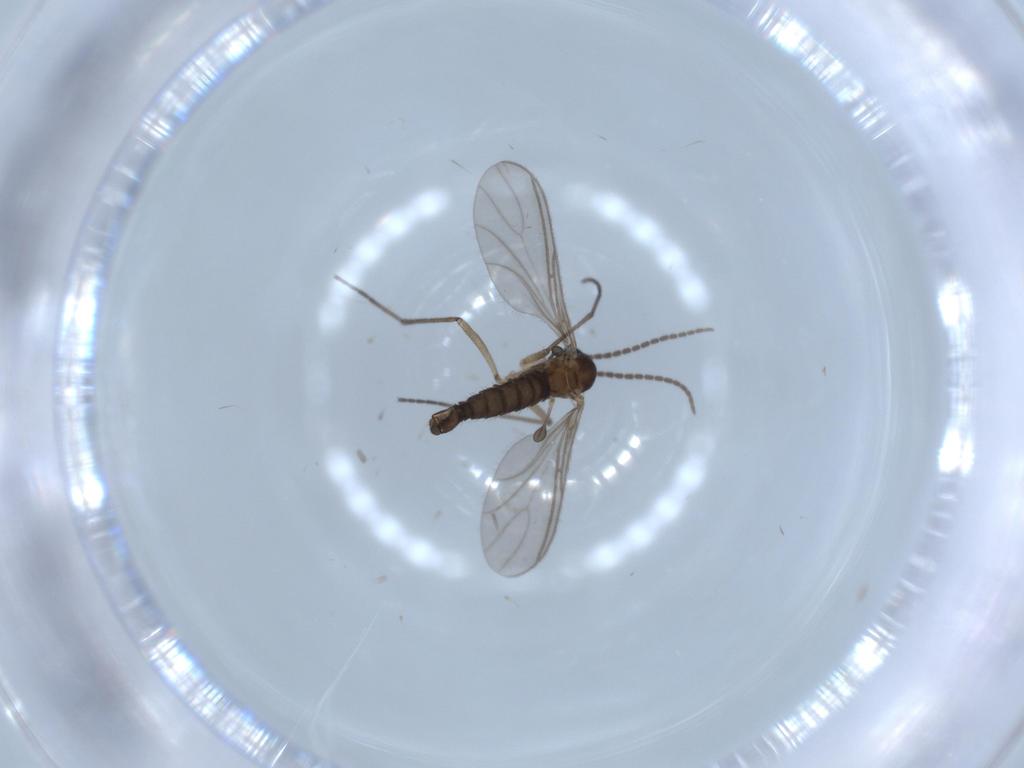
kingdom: Animalia
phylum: Arthropoda
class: Insecta
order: Diptera
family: Sciaridae
